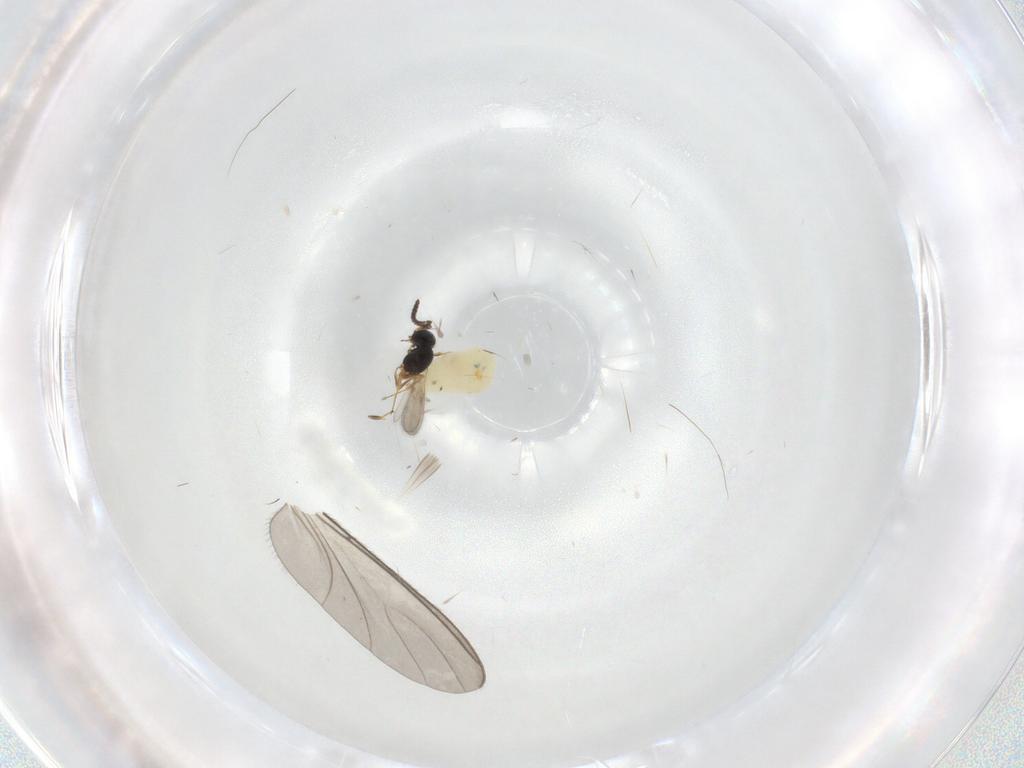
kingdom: Animalia
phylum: Arthropoda
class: Insecta
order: Hymenoptera
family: Scelionidae
